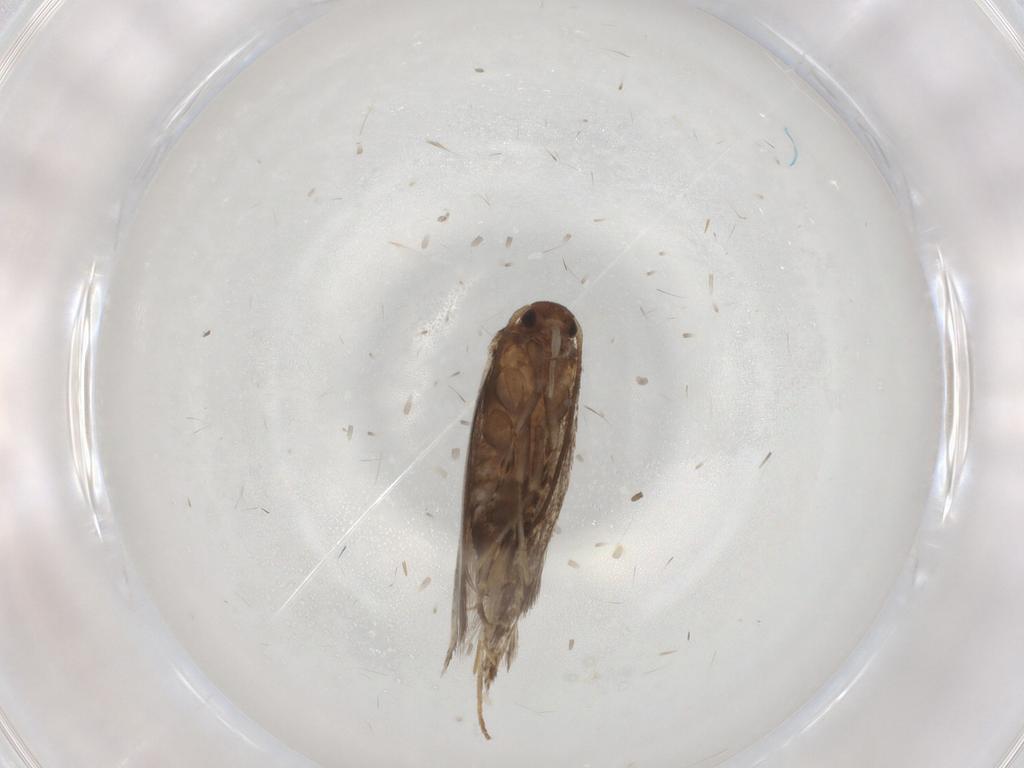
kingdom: Animalia
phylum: Arthropoda
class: Insecta
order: Lepidoptera
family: Elachistidae
